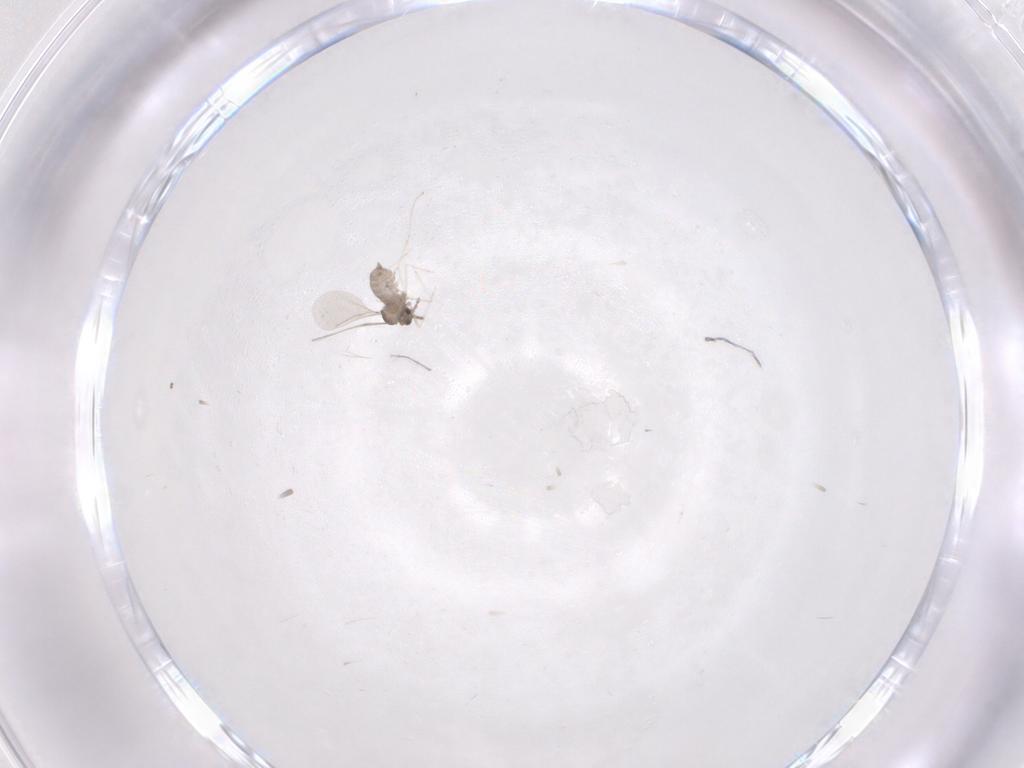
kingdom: Animalia
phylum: Arthropoda
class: Insecta
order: Diptera
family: Cecidomyiidae
